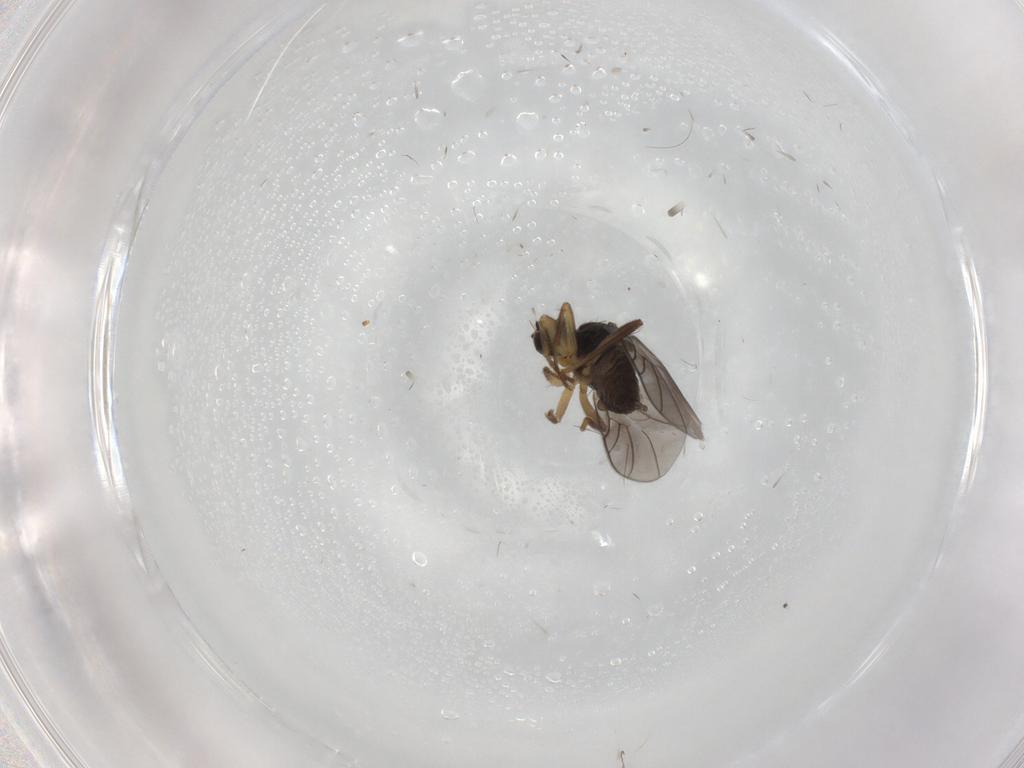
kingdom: Animalia
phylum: Arthropoda
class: Insecta
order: Diptera
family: Hybotidae
